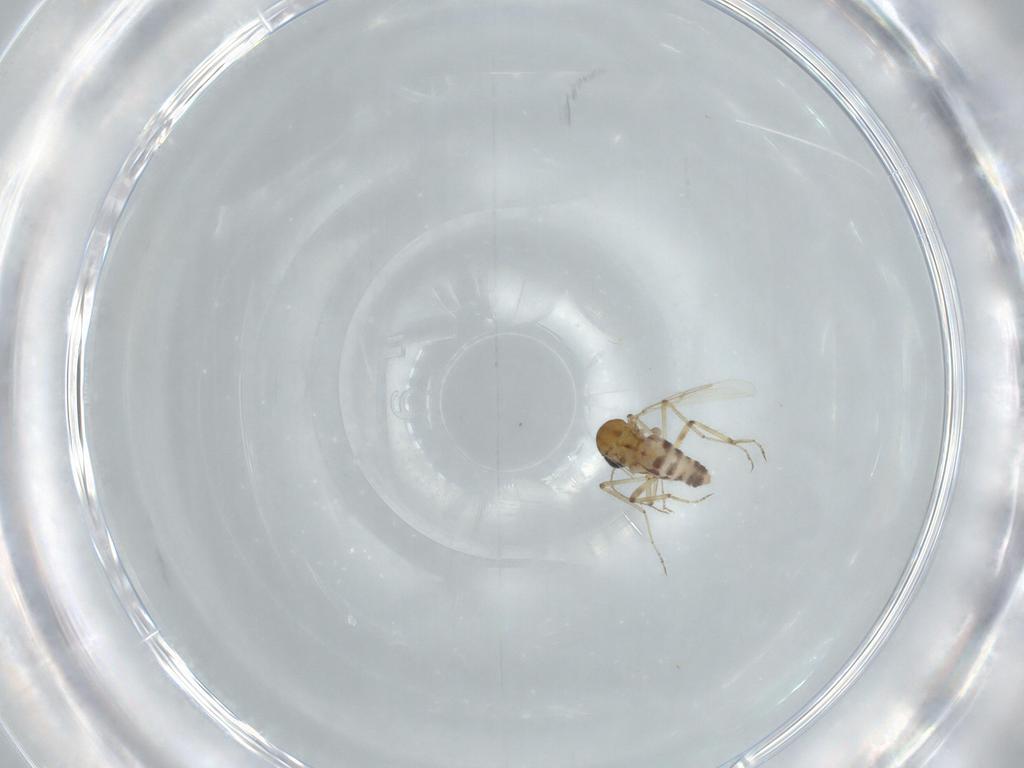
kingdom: Animalia
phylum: Arthropoda
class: Insecta
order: Diptera
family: Ceratopogonidae
